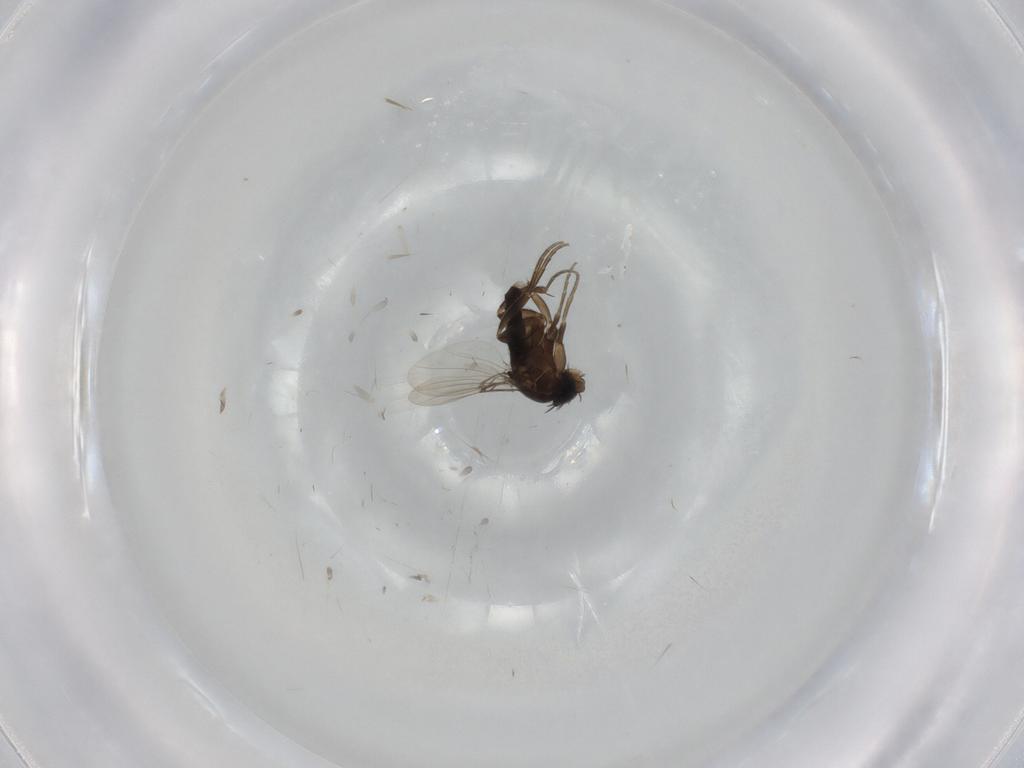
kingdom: Animalia
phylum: Arthropoda
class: Insecta
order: Diptera
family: Phoridae
